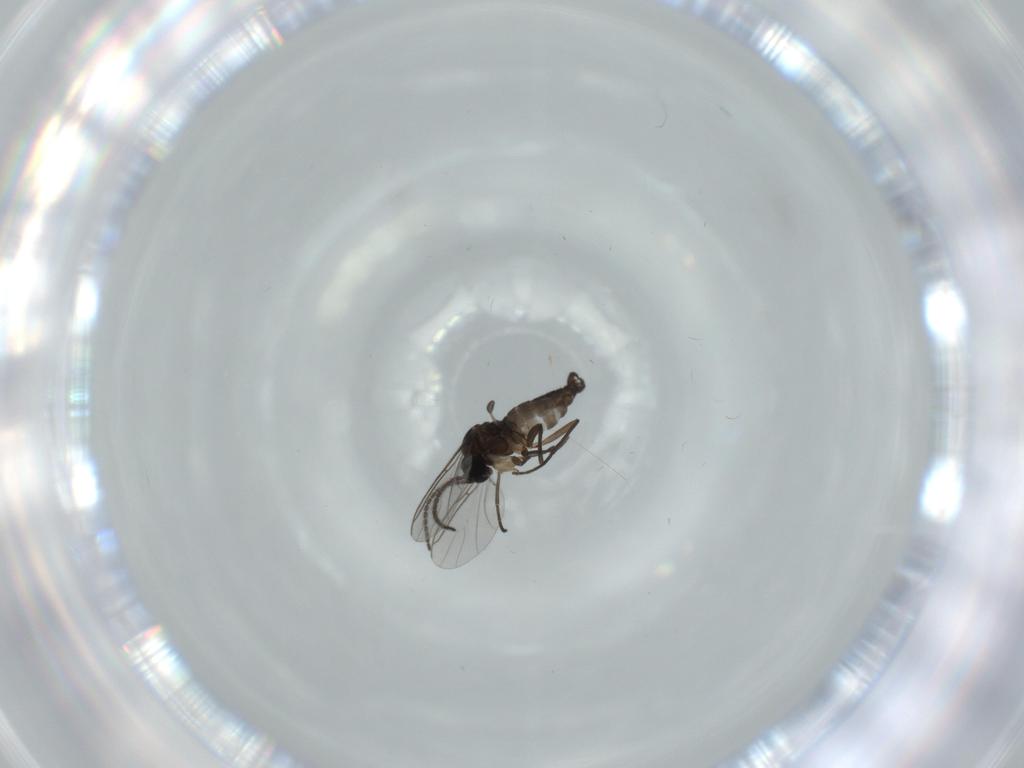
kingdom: Animalia
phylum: Arthropoda
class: Insecta
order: Diptera
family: Sciaridae
